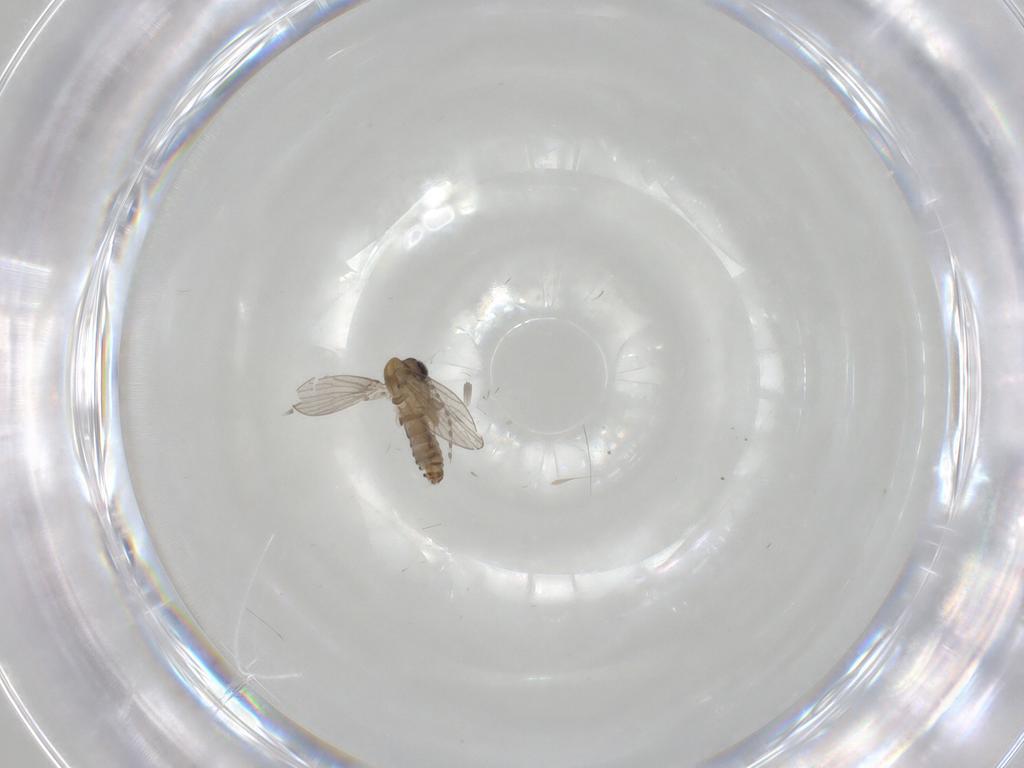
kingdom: Animalia
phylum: Arthropoda
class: Insecta
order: Diptera
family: Psychodidae
